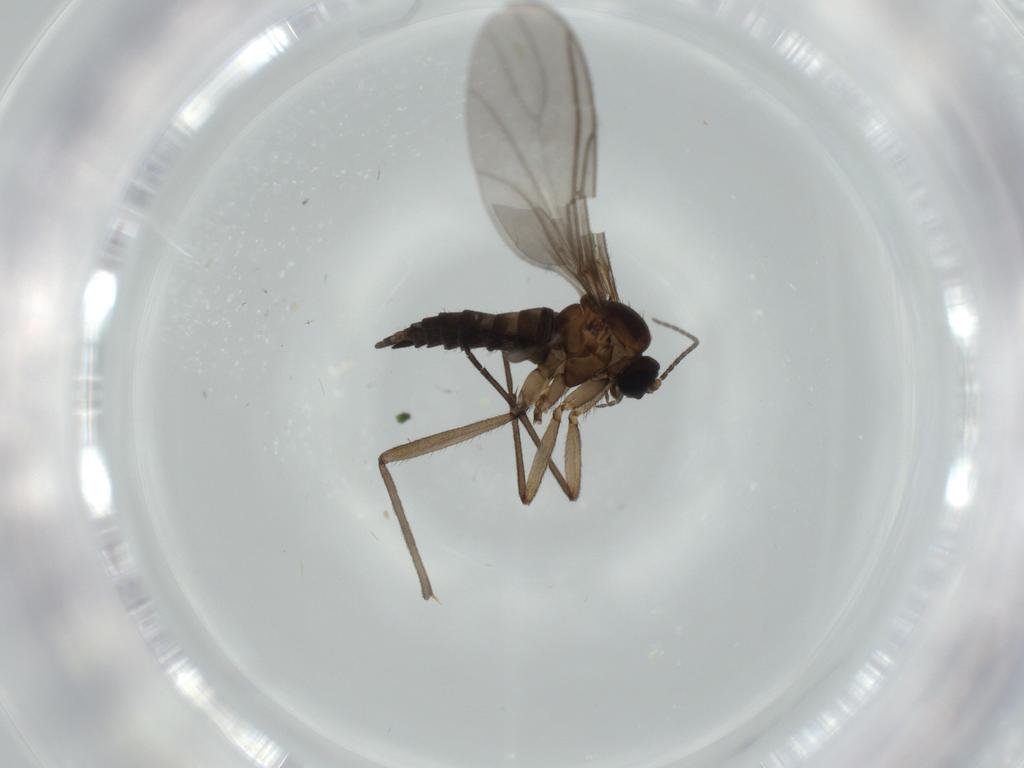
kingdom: Animalia
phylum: Arthropoda
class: Insecta
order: Diptera
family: Sciaridae
